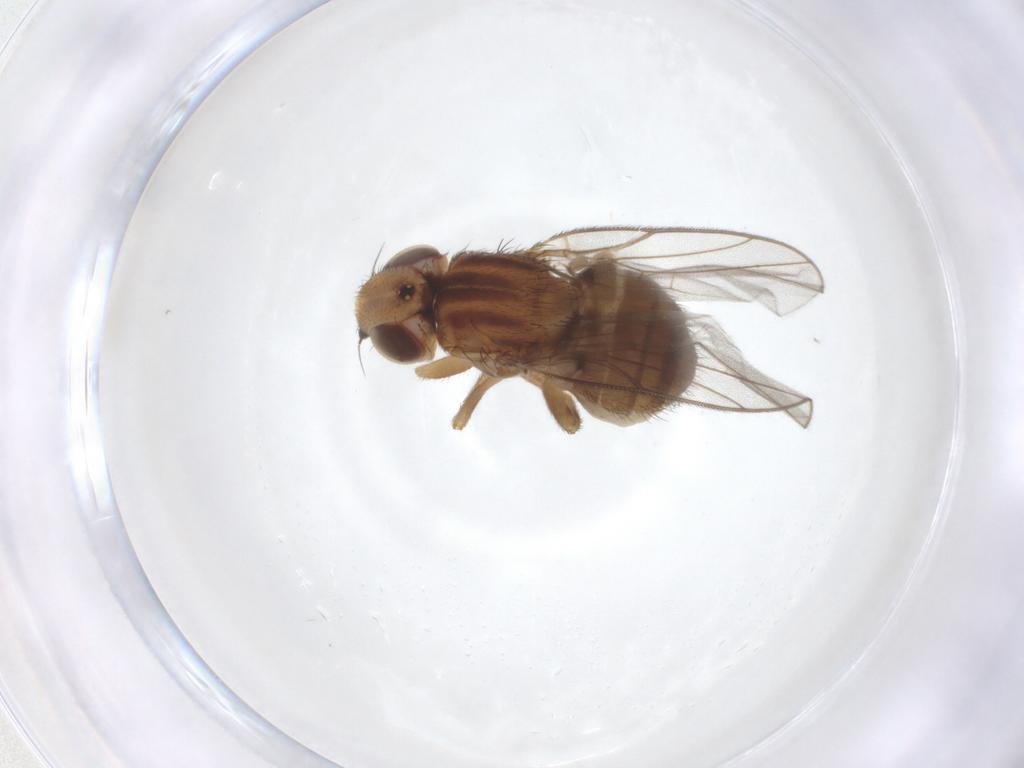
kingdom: Animalia
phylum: Arthropoda
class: Insecta
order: Diptera
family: Chloropidae
